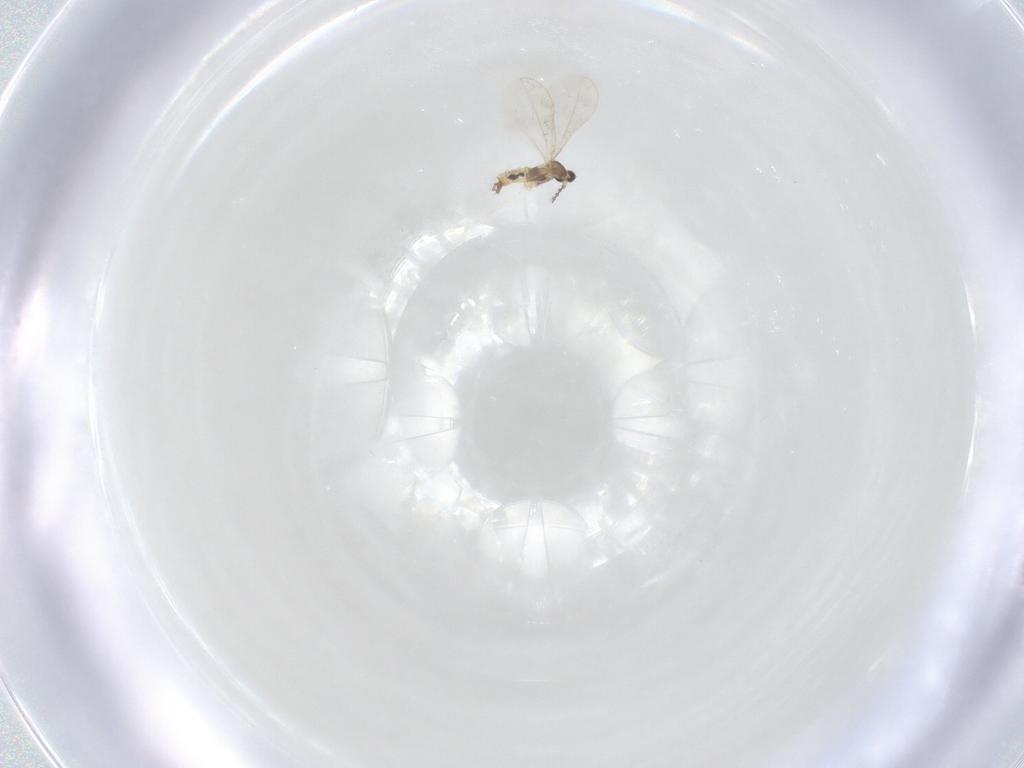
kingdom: Animalia
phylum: Arthropoda
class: Insecta
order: Diptera
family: Cecidomyiidae
